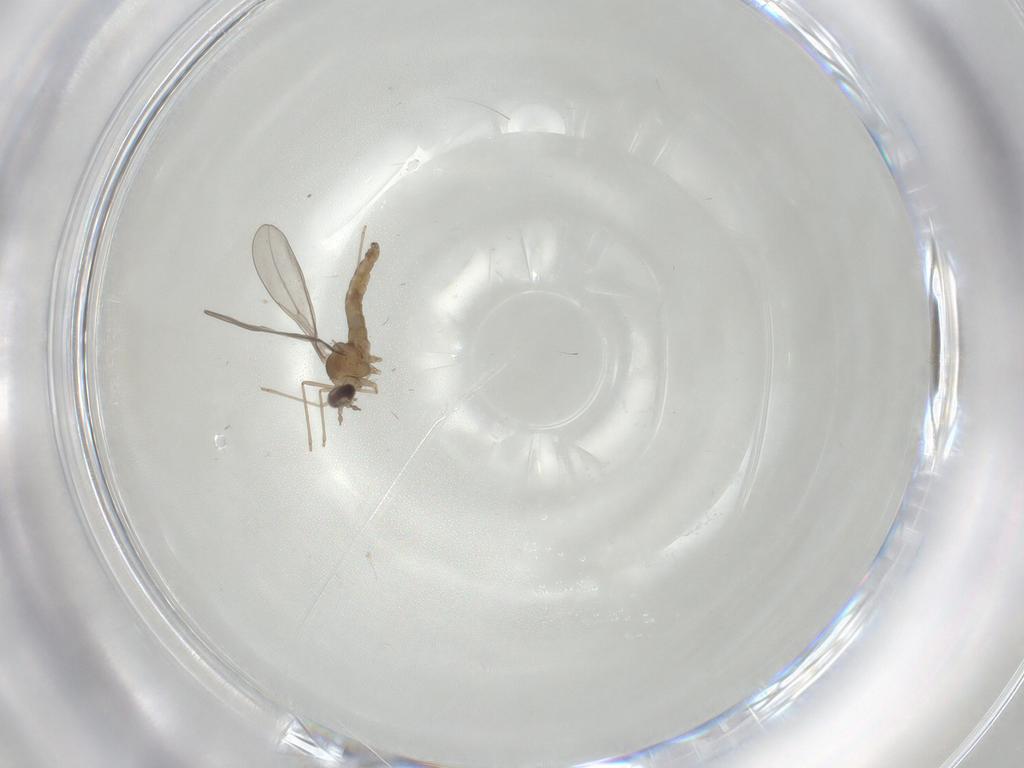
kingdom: Animalia
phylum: Arthropoda
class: Insecta
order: Diptera
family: Cecidomyiidae
